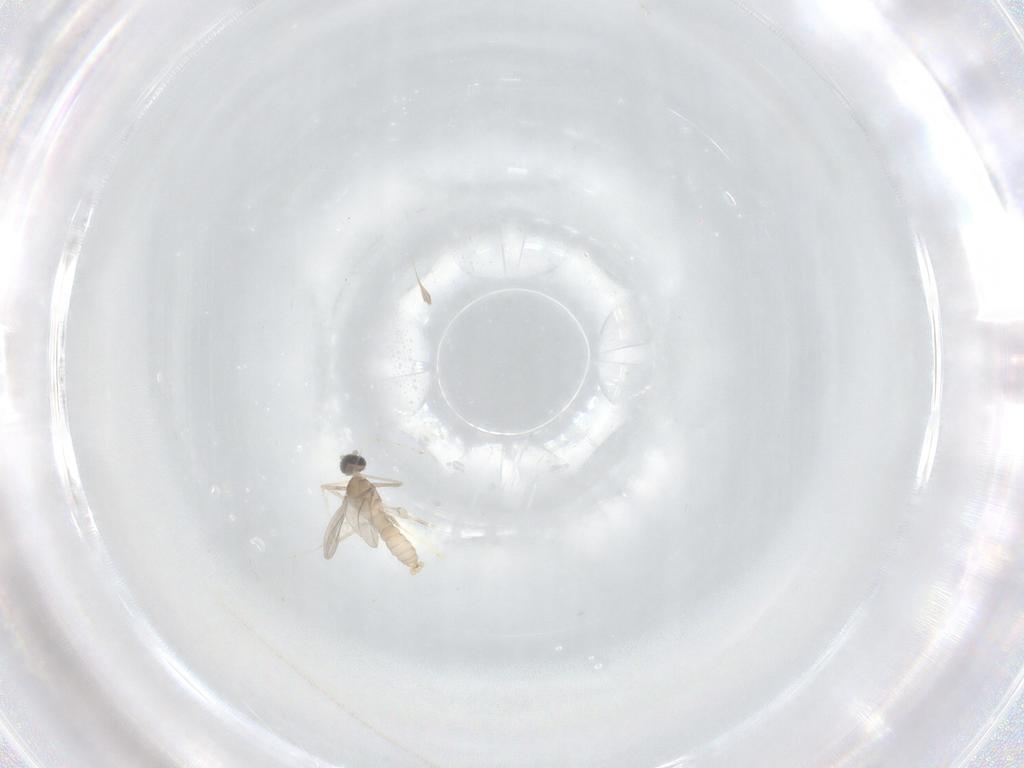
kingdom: Animalia
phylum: Arthropoda
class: Insecta
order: Diptera
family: Cecidomyiidae
